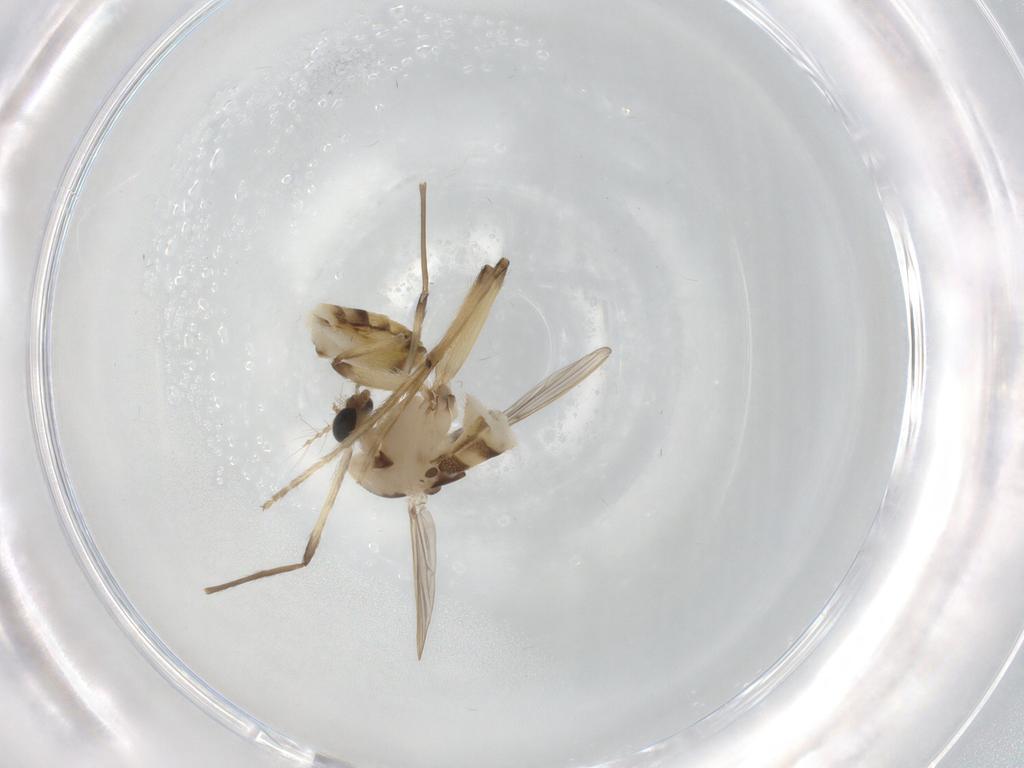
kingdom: Animalia
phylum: Arthropoda
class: Insecta
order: Diptera
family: Chironomidae
